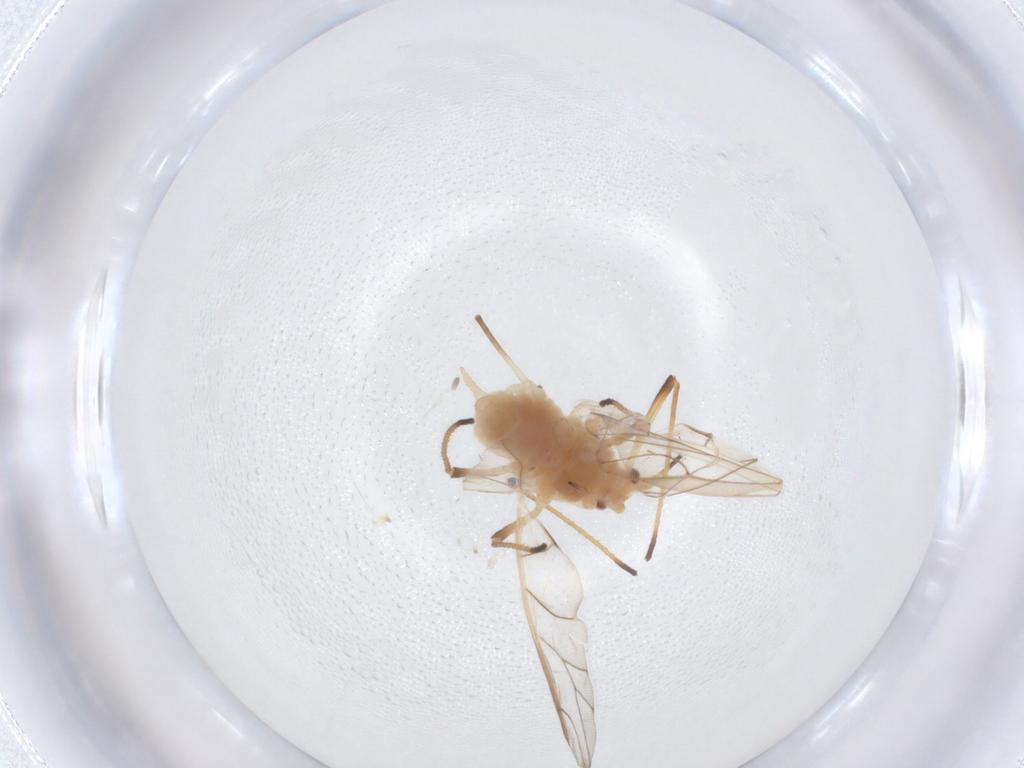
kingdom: Animalia
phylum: Arthropoda
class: Insecta
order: Hemiptera
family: Aphididae
